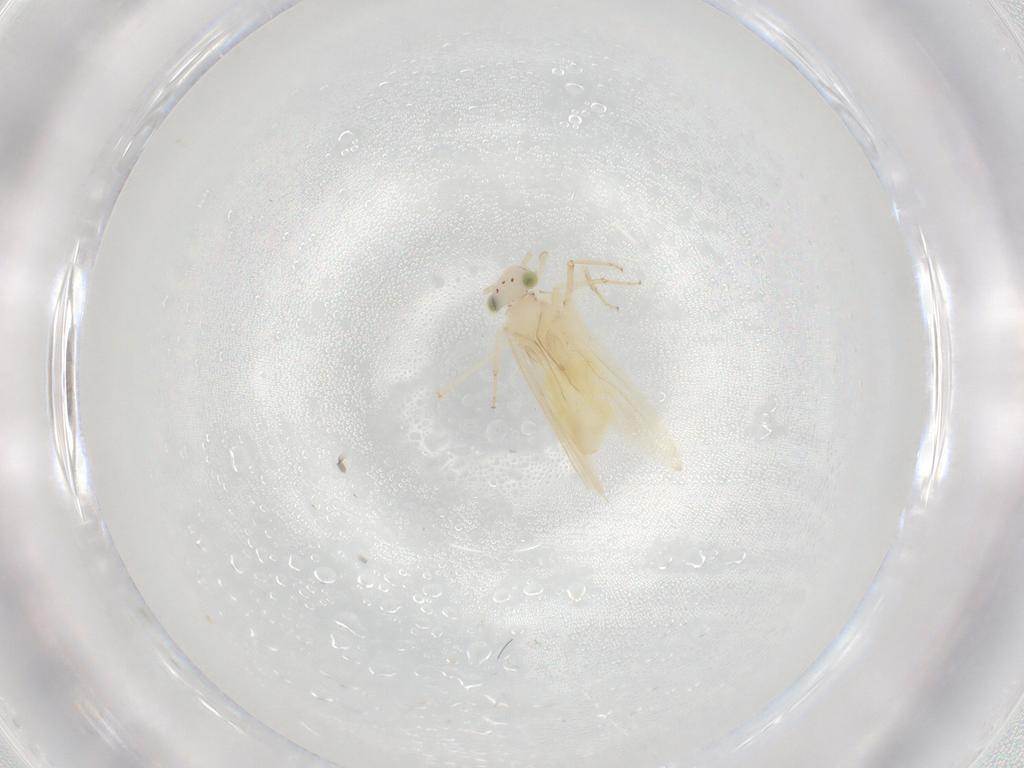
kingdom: Animalia
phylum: Arthropoda
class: Insecta
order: Psocodea
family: Lepidopsocidae
